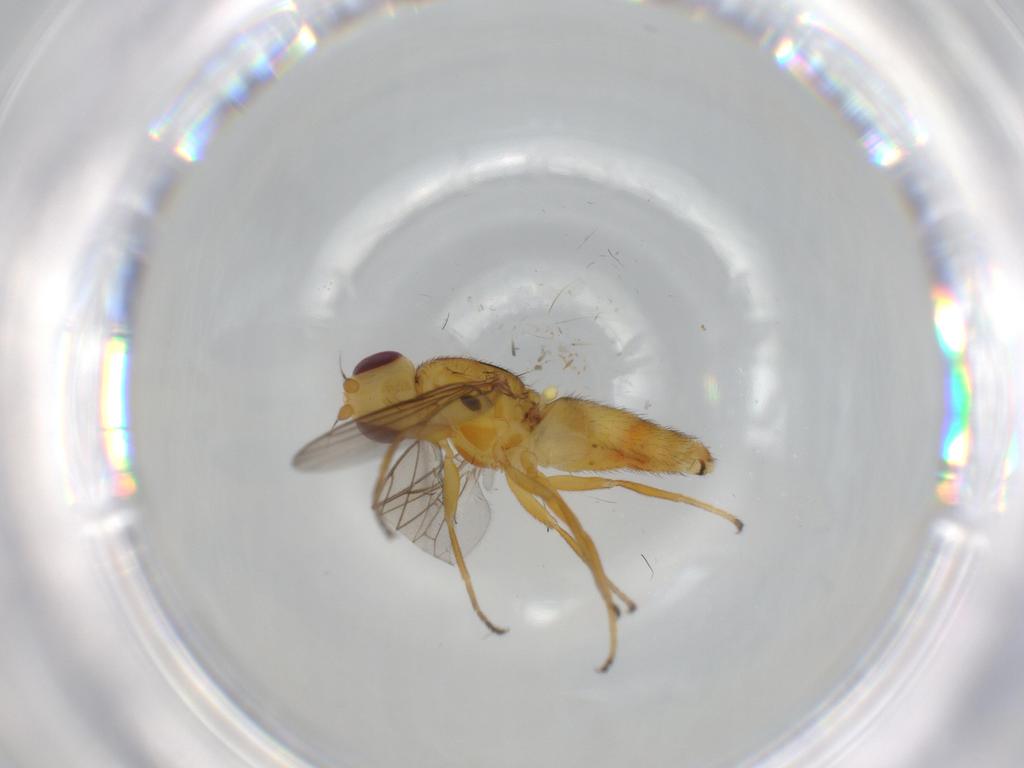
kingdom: Animalia
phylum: Arthropoda
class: Insecta
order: Diptera
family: Chloropidae
